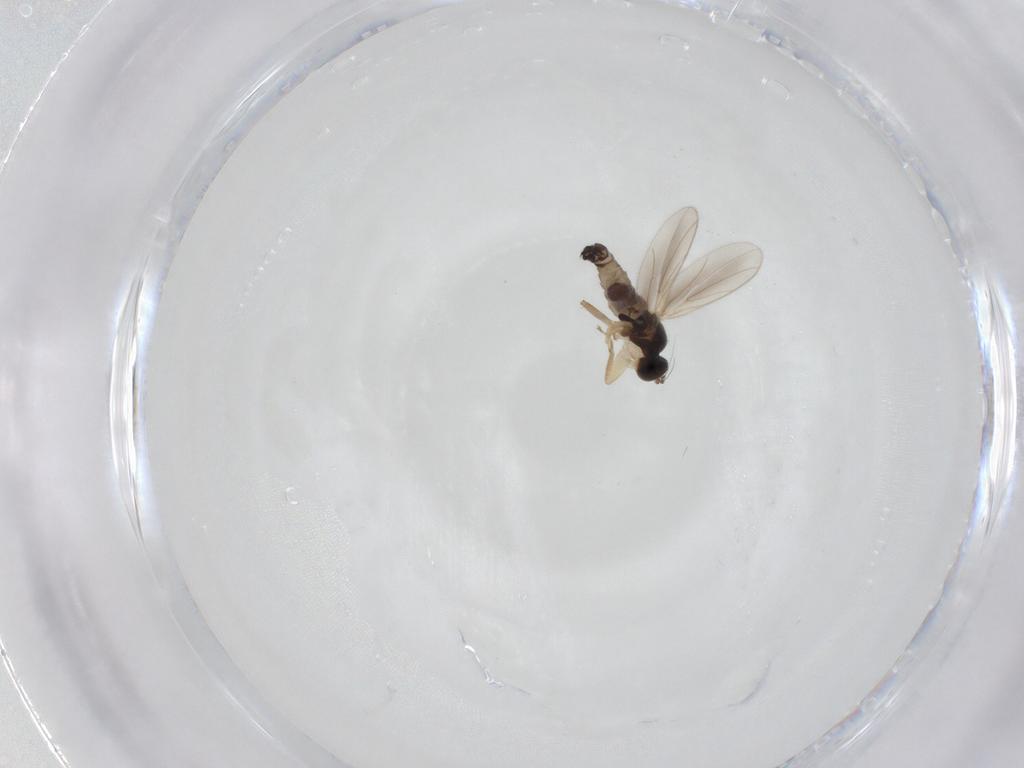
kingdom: Animalia
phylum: Arthropoda
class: Insecta
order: Diptera
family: Hybotidae
